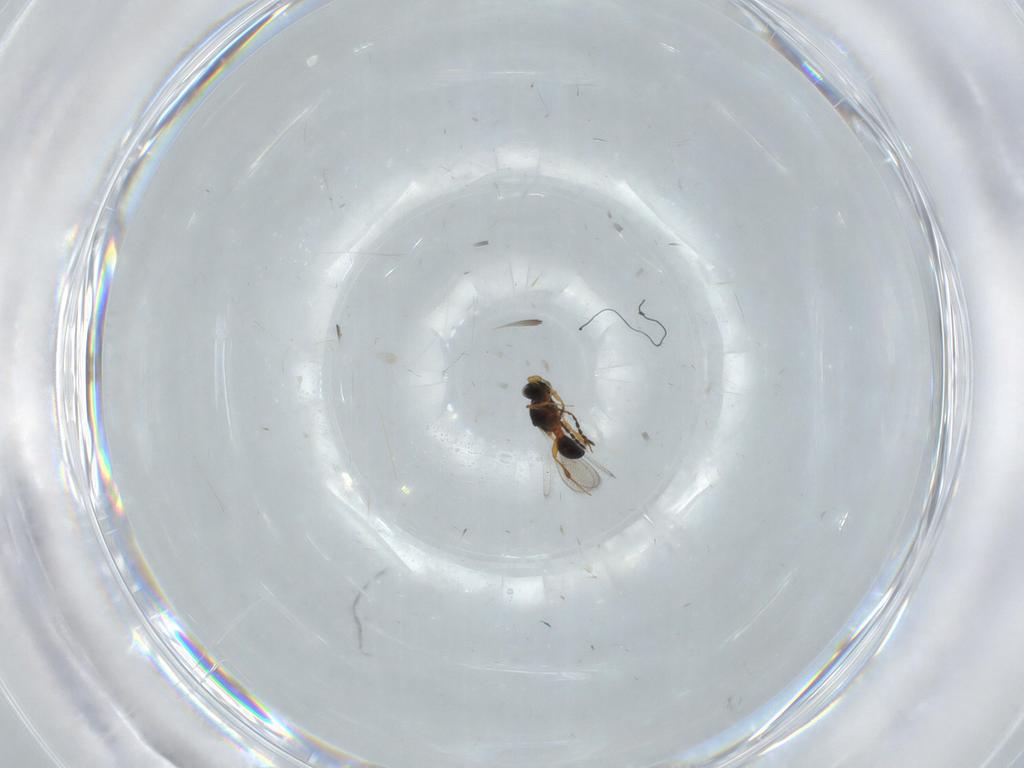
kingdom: Animalia
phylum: Arthropoda
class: Insecta
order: Hymenoptera
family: Platygastridae
